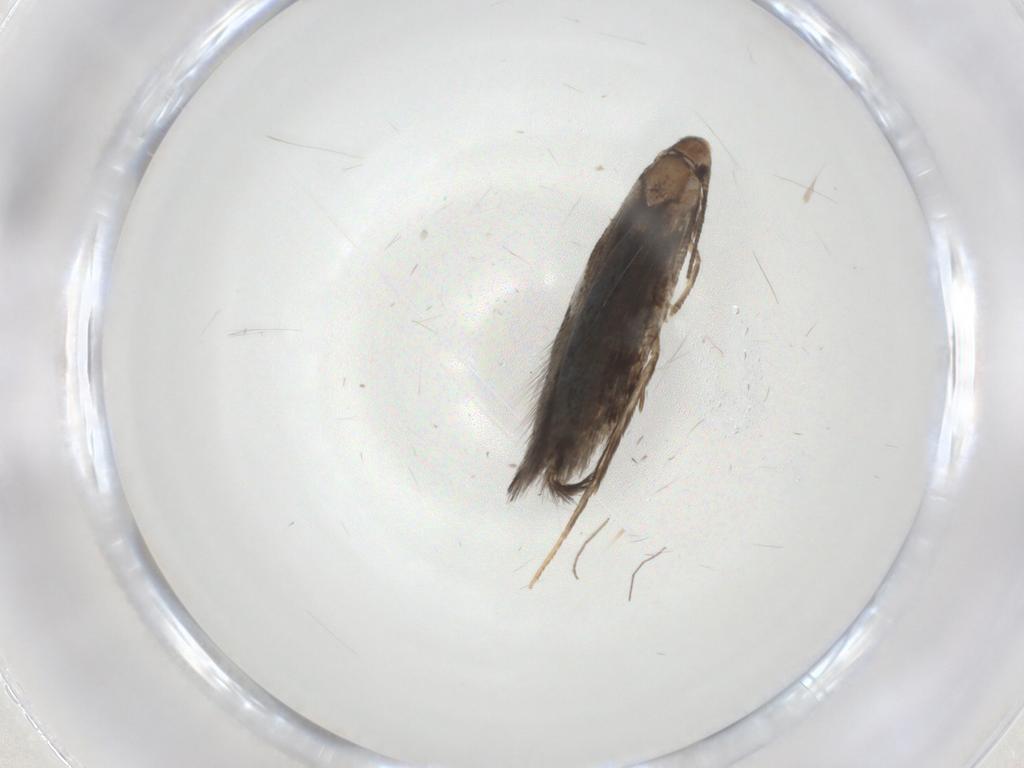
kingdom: Animalia
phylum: Arthropoda
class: Insecta
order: Lepidoptera
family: Gelechiidae
